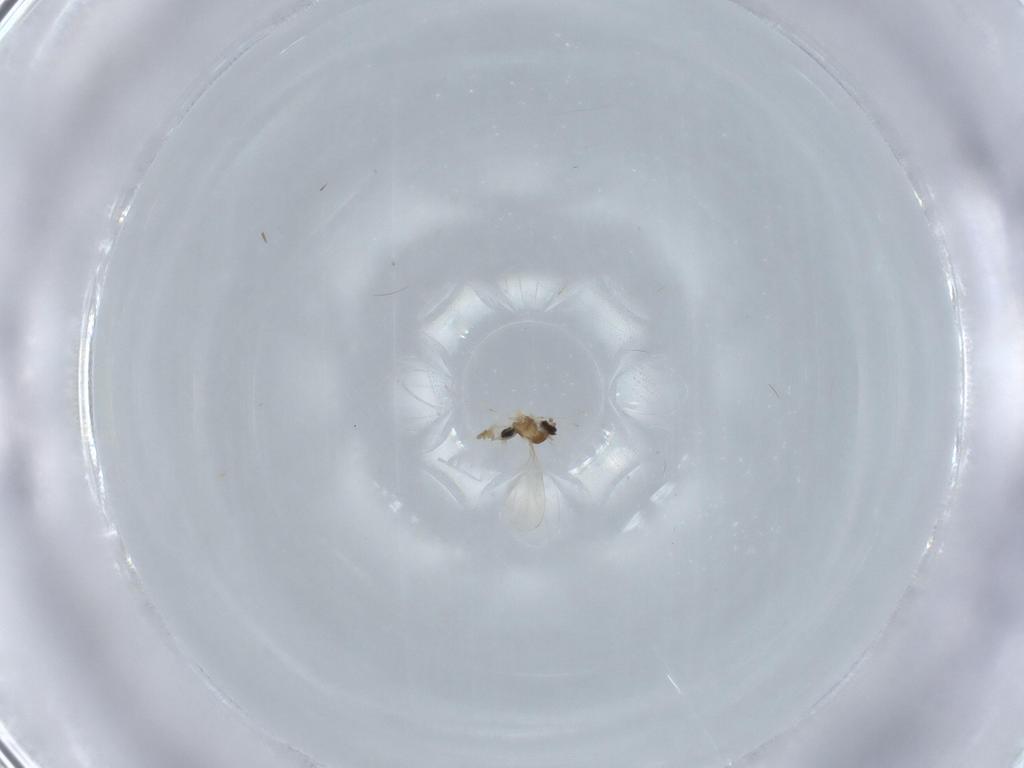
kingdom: Animalia
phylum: Arthropoda
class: Insecta
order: Diptera
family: Cecidomyiidae
